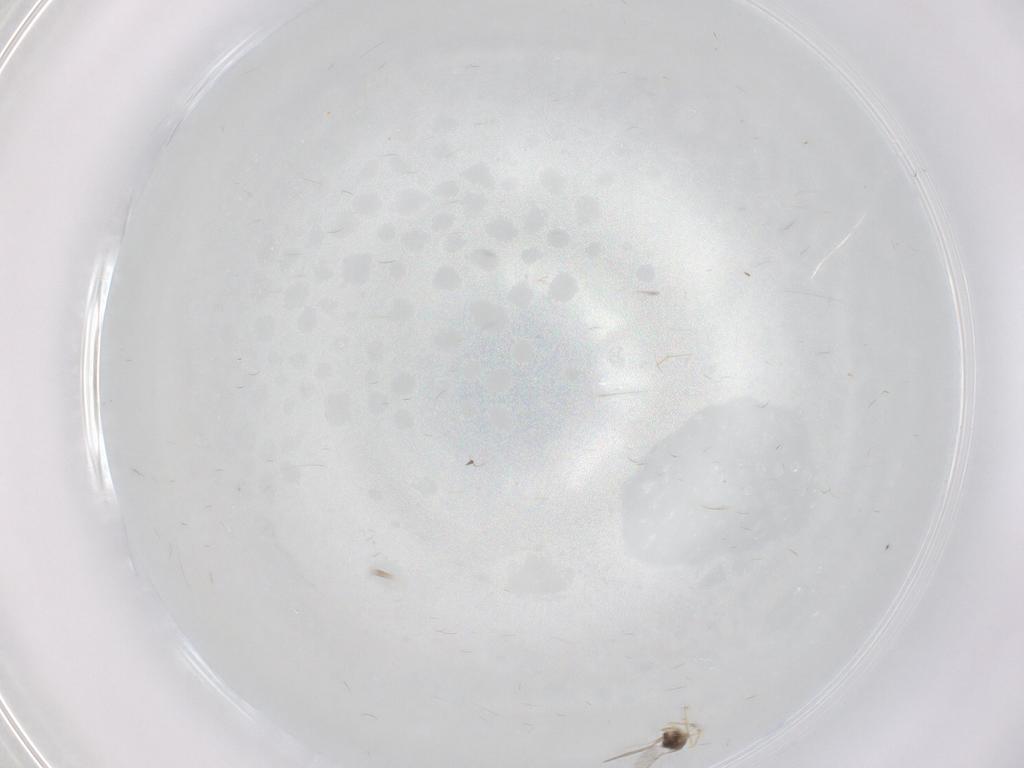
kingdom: Animalia
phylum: Arthropoda
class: Insecta
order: Hymenoptera
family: Encyrtidae
